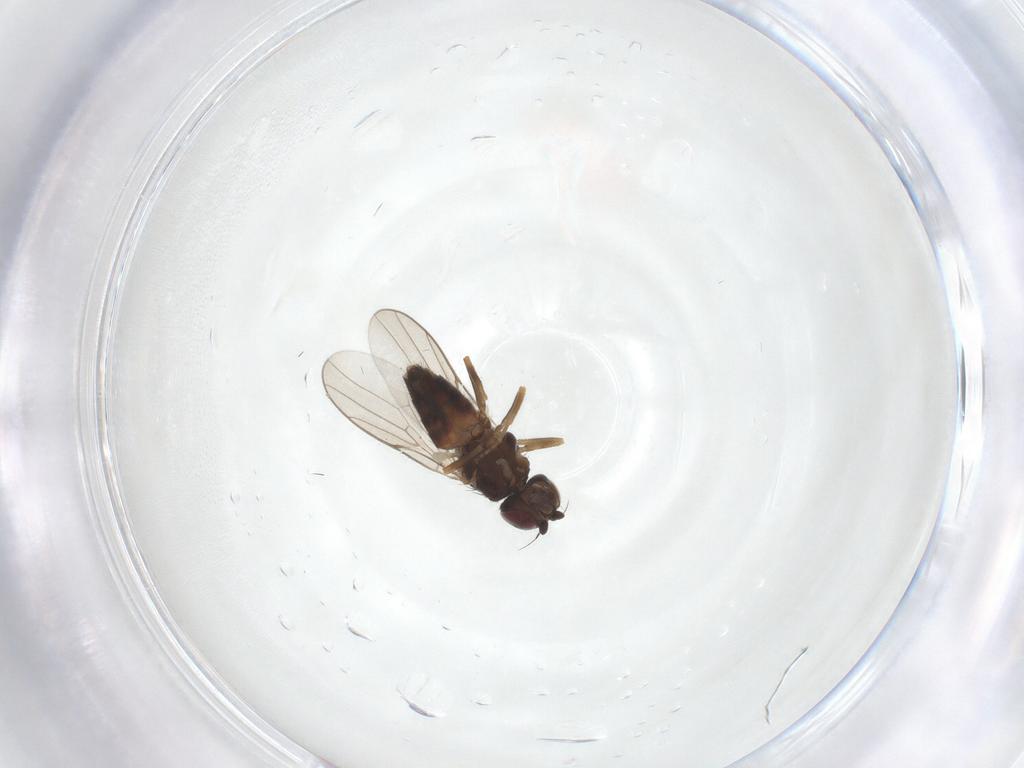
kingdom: Animalia
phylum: Arthropoda
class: Insecta
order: Diptera
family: Chloropidae
